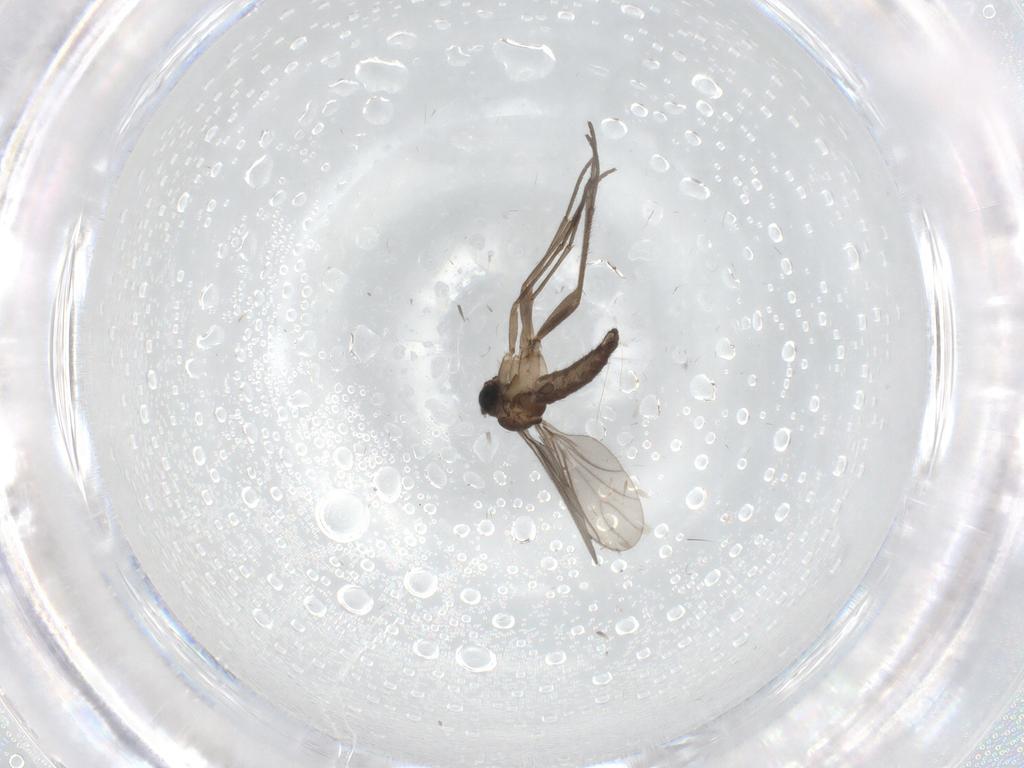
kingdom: Animalia
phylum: Arthropoda
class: Insecta
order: Diptera
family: Sciaridae
